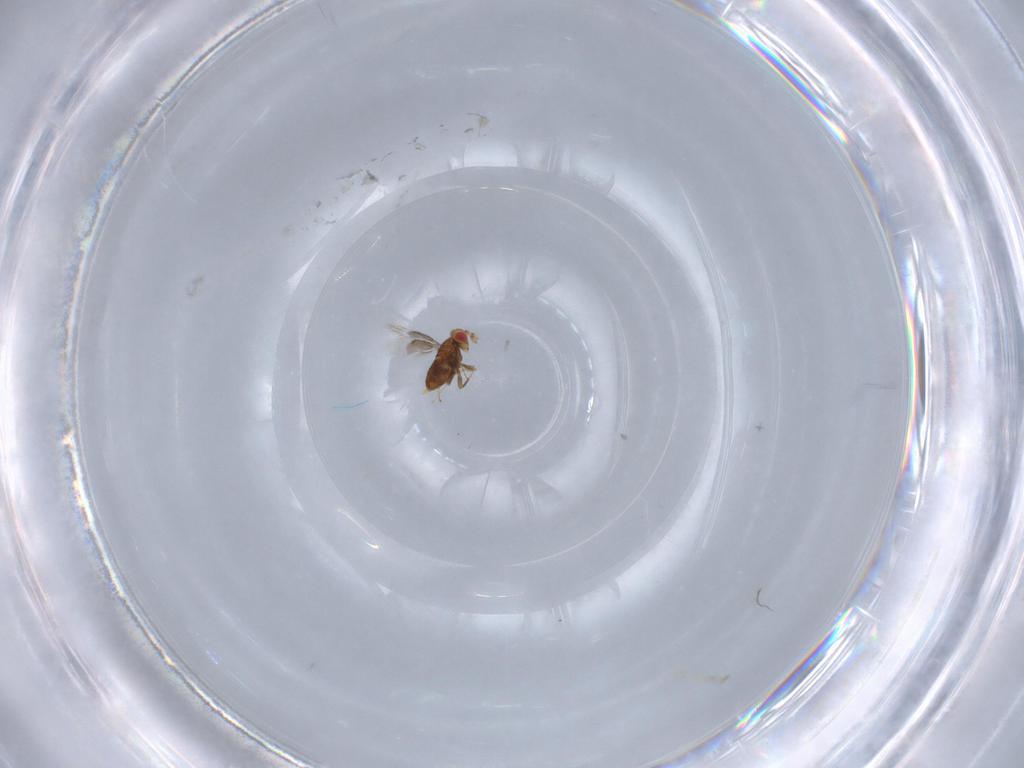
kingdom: Animalia
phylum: Arthropoda
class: Insecta
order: Hymenoptera
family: Trichogrammatidae
